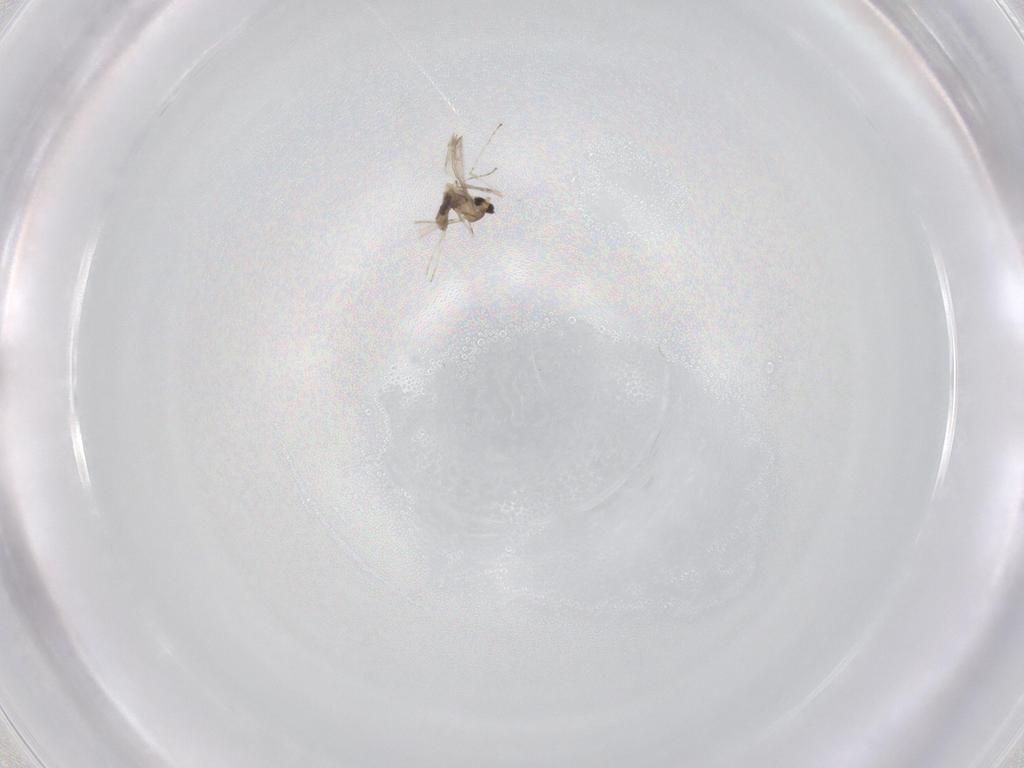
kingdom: Animalia
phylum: Arthropoda
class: Insecta
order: Diptera
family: Cecidomyiidae
